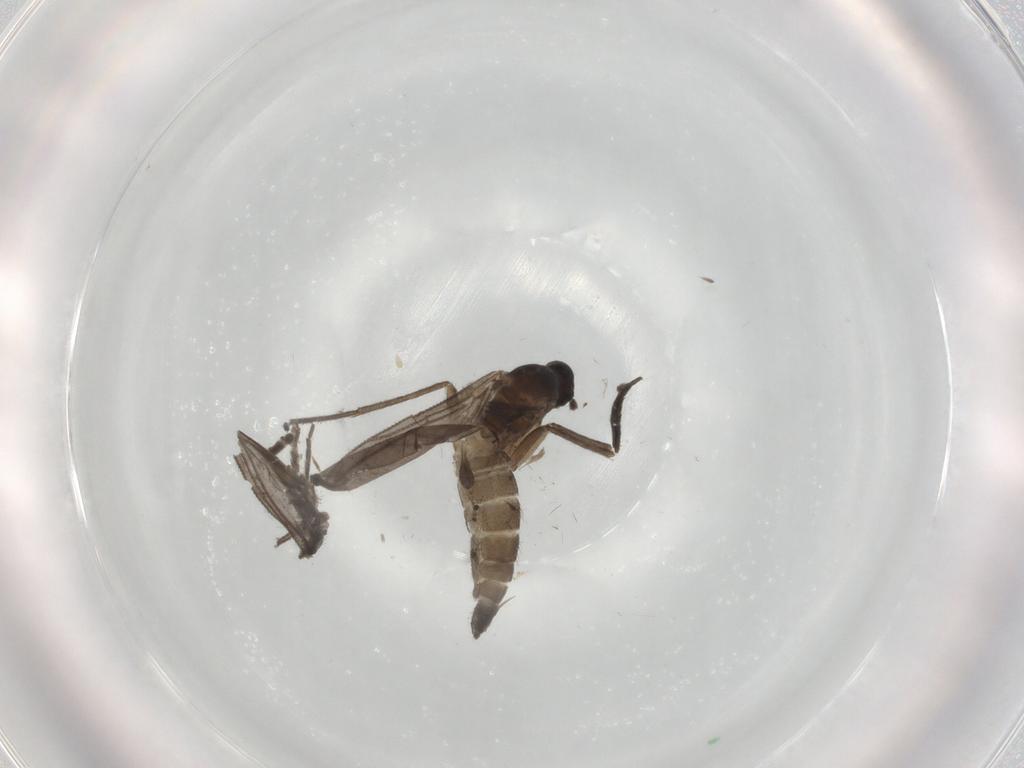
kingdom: Animalia
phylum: Arthropoda
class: Insecta
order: Diptera
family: Sciaridae
